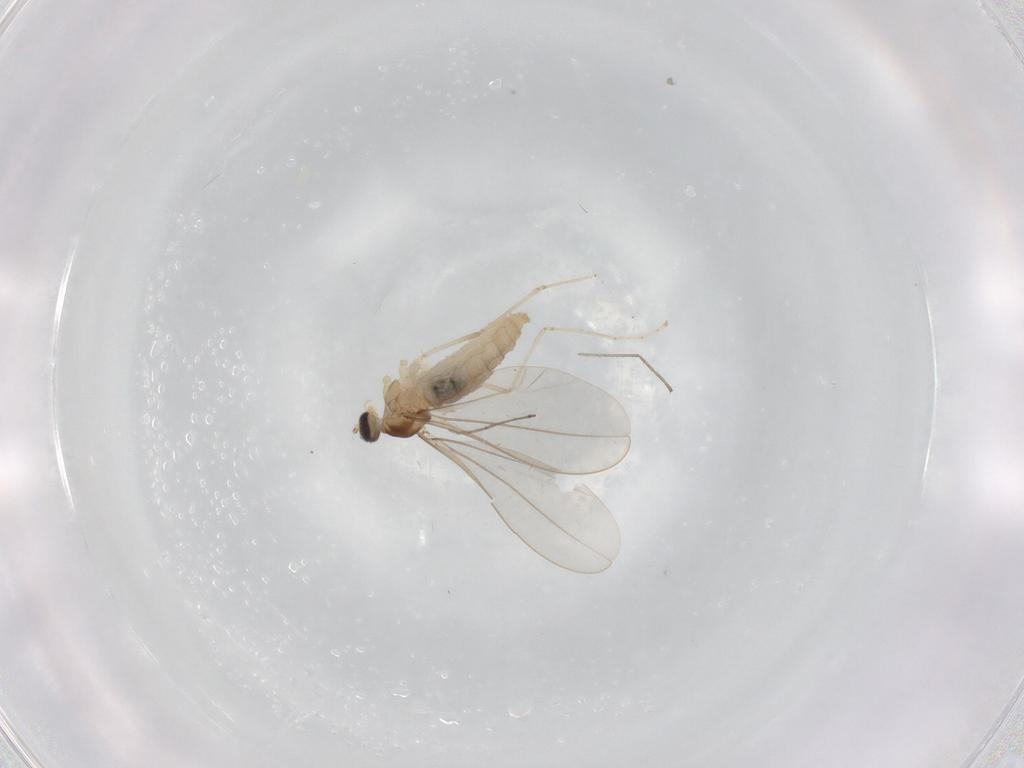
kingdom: Animalia
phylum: Arthropoda
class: Insecta
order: Diptera
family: Cecidomyiidae
